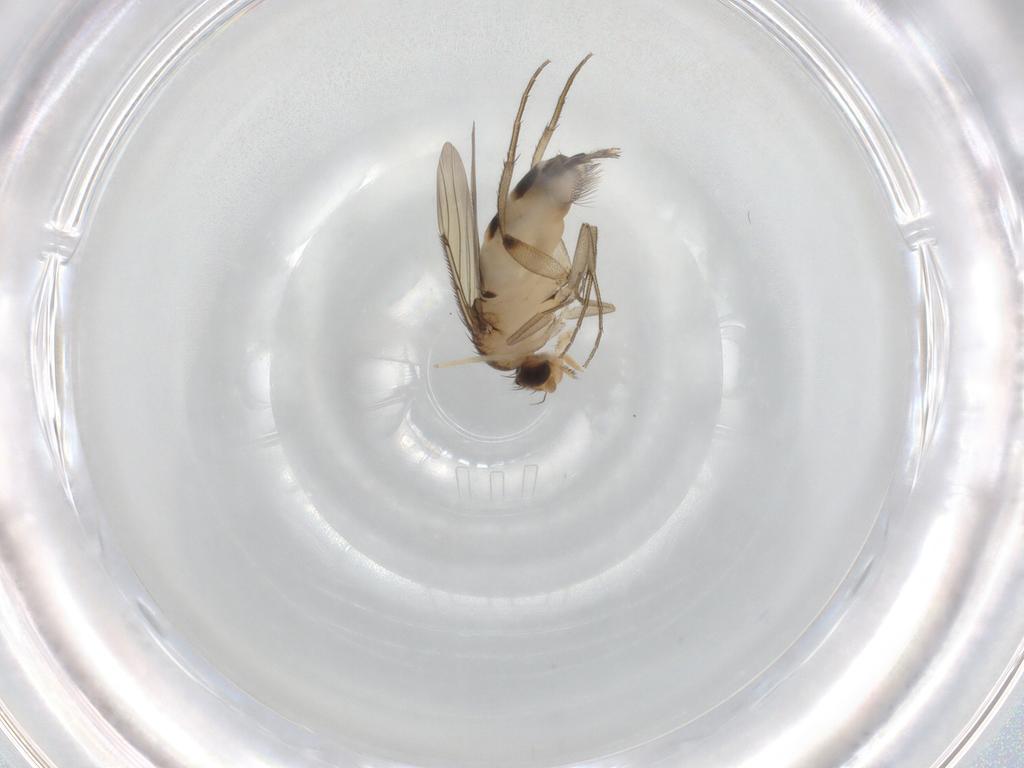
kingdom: Animalia
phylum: Arthropoda
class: Insecta
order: Diptera
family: Phoridae
